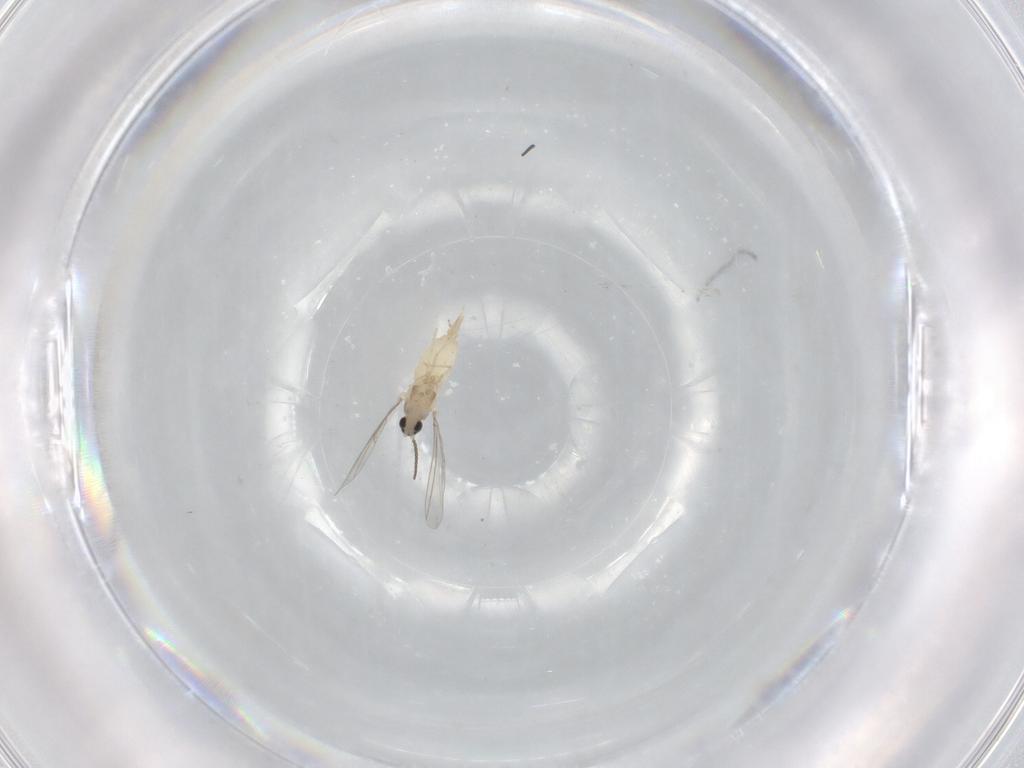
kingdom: Animalia
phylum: Arthropoda
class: Insecta
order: Diptera
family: Cecidomyiidae
